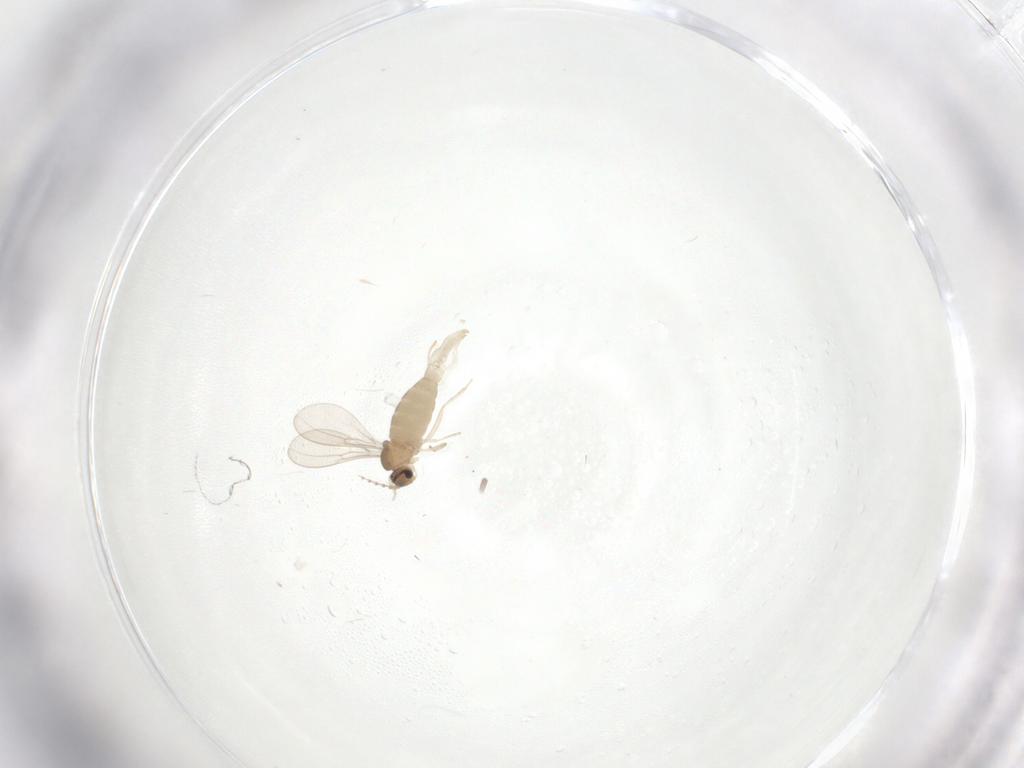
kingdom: Animalia
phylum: Arthropoda
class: Insecta
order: Diptera
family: Cecidomyiidae
